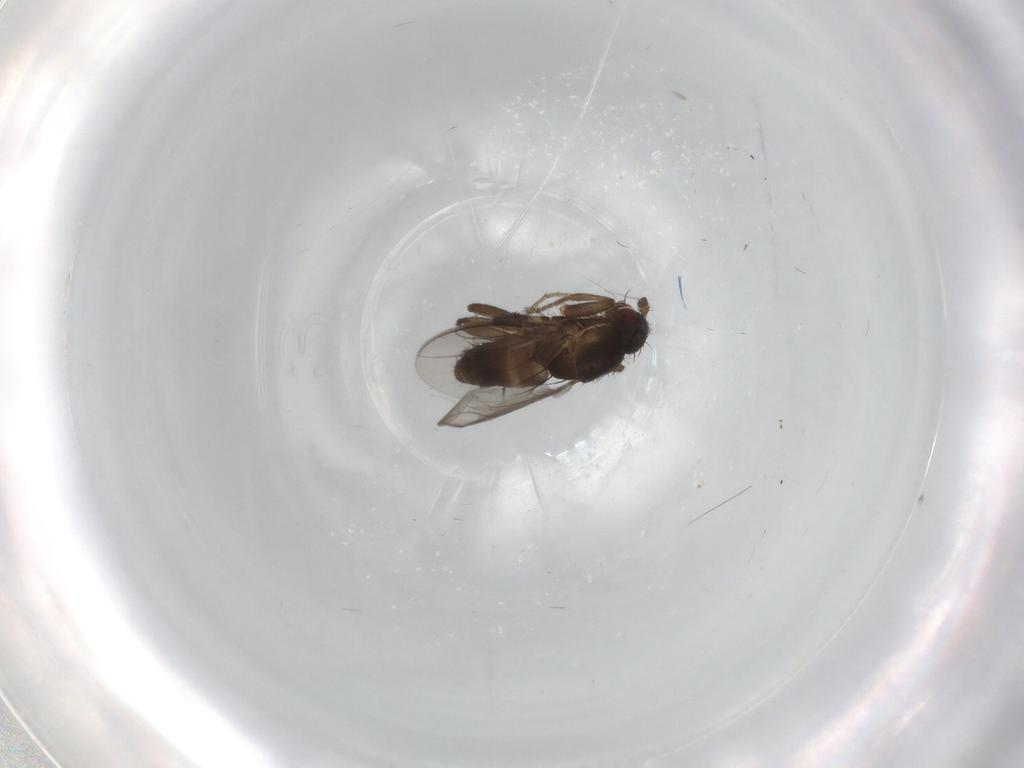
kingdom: Animalia
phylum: Arthropoda
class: Insecta
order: Diptera
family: Sphaeroceridae
